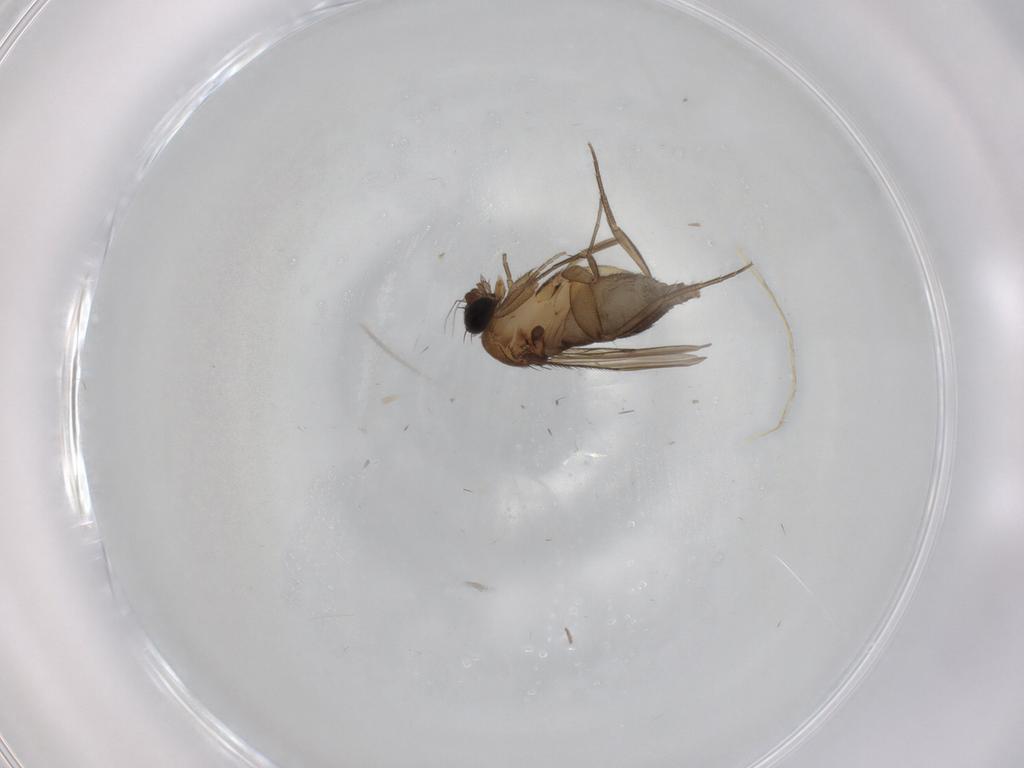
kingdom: Animalia
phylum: Arthropoda
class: Insecta
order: Diptera
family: Phoridae
